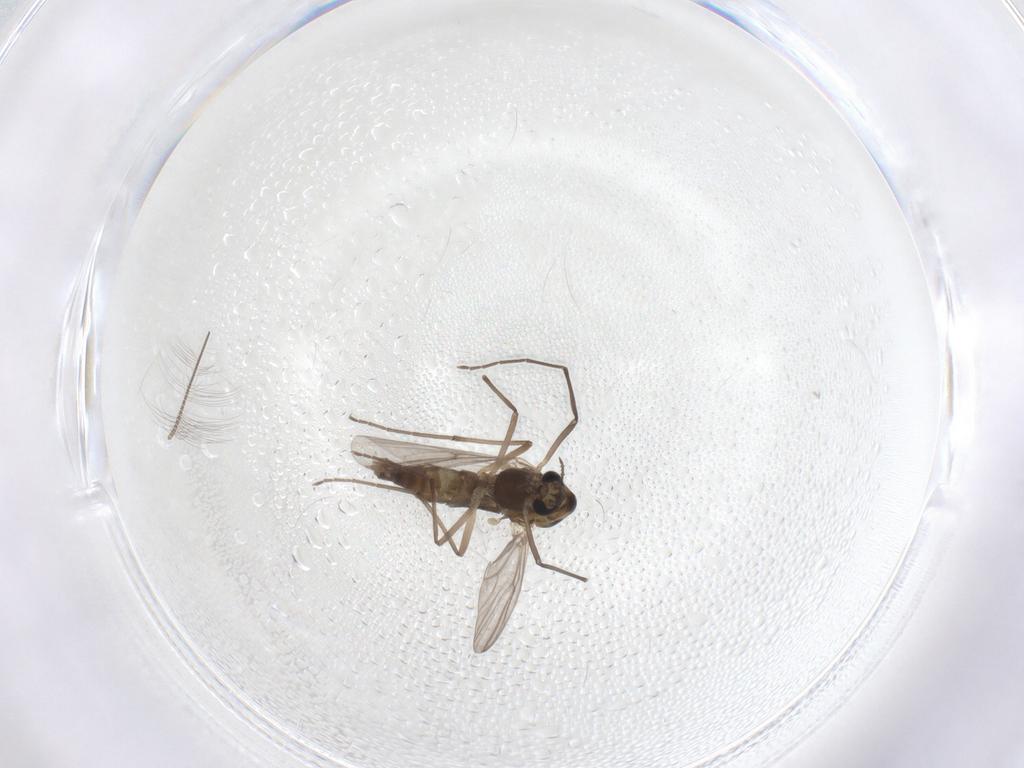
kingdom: Animalia
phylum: Arthropoda
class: Insecta
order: Diptera
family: Chironomidae
